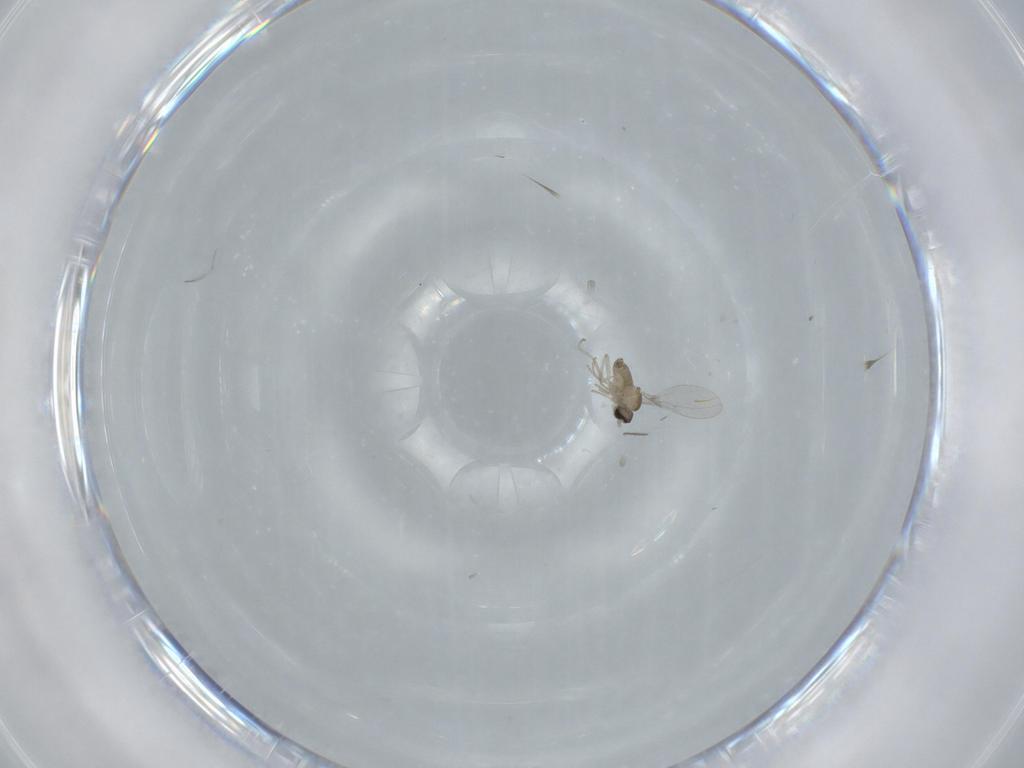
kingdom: Animalia
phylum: Arthropoda
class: Insecta
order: Diptera
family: Cecidomyiidae
